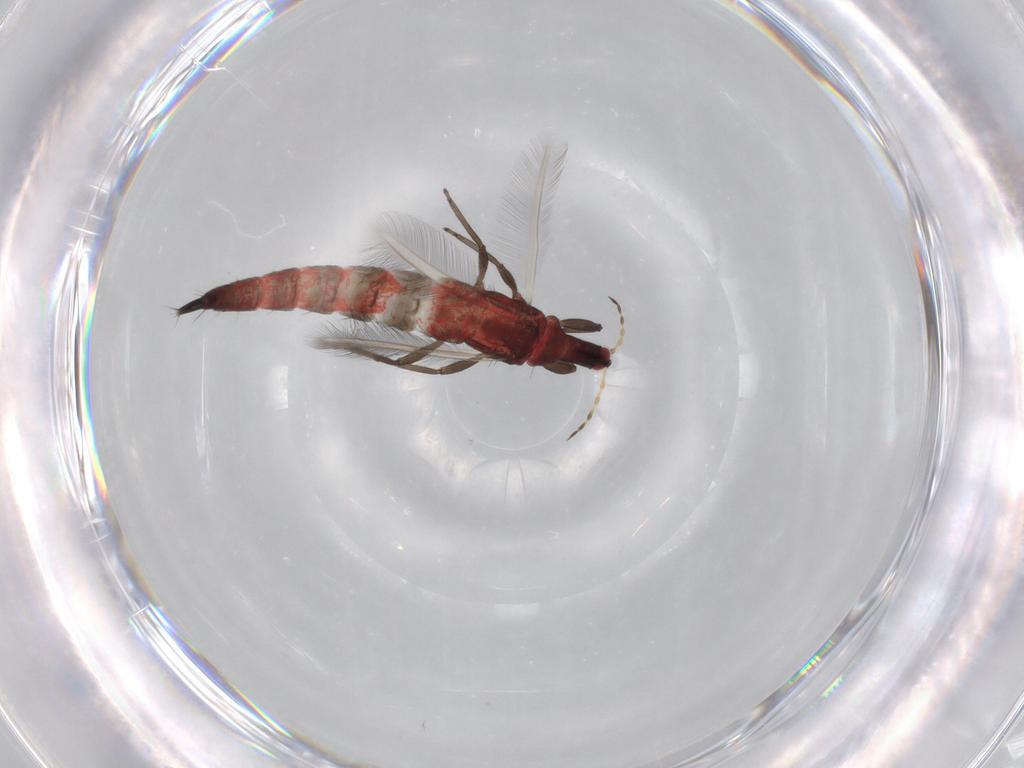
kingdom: Animalia
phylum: Arthropoda
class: Insecta
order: Thysanoptera
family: Phlaeothripidae
